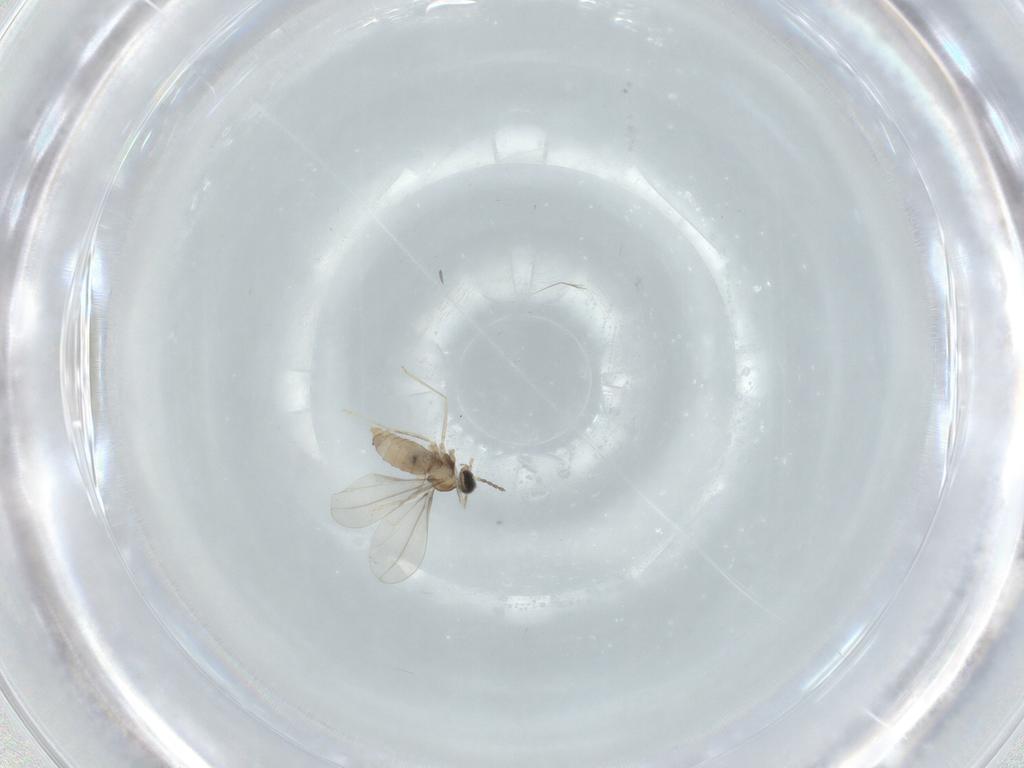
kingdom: Animalia
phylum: Arthropoda
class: Insecta
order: Diptera
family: Cecidomyiidae
